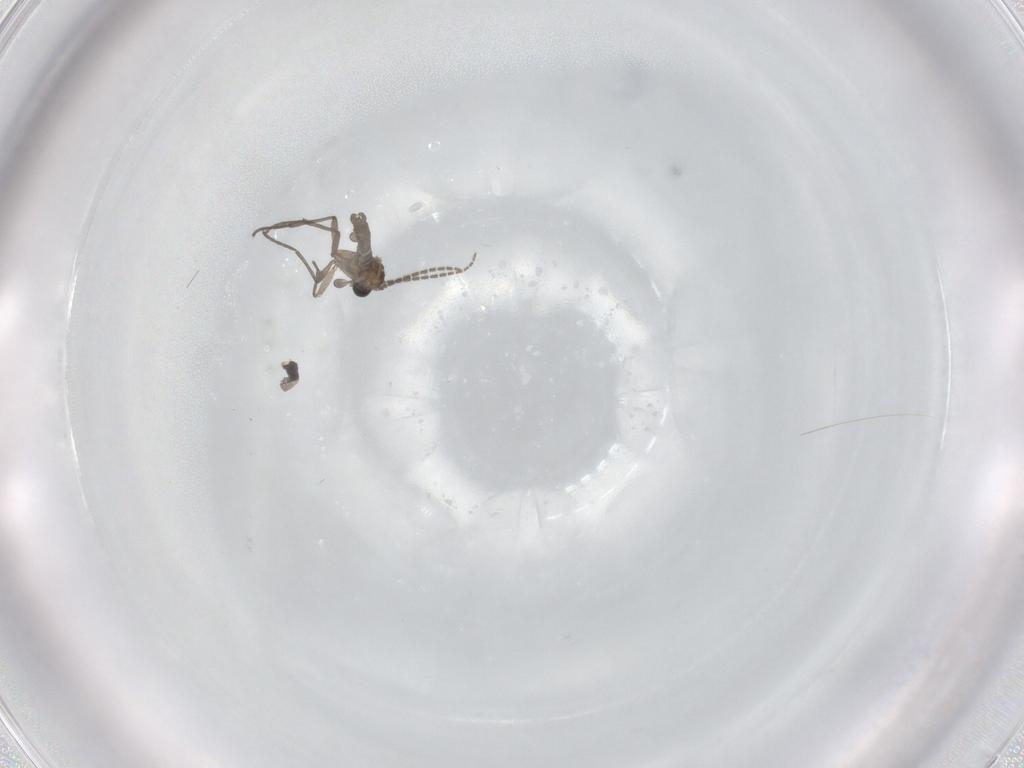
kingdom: Animalia
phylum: Arthropoda
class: Insecta
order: Diptera
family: Sciaridae
